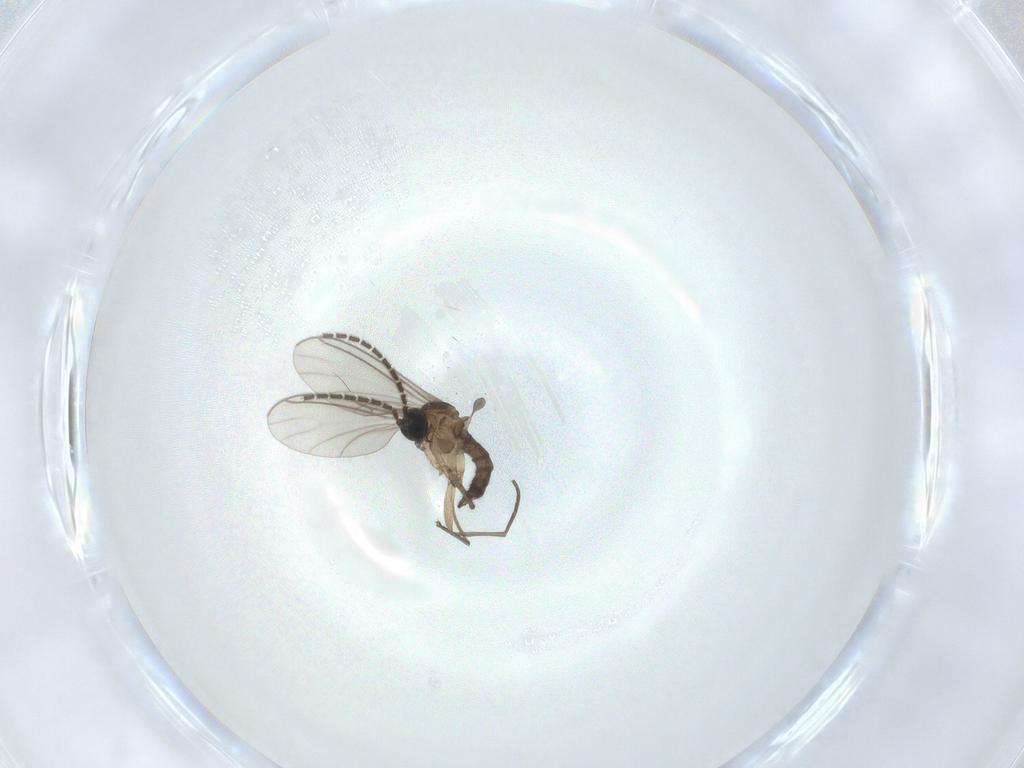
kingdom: Animalia
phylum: Arthropoda
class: Insecta
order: Diptera
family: Sciaridae
